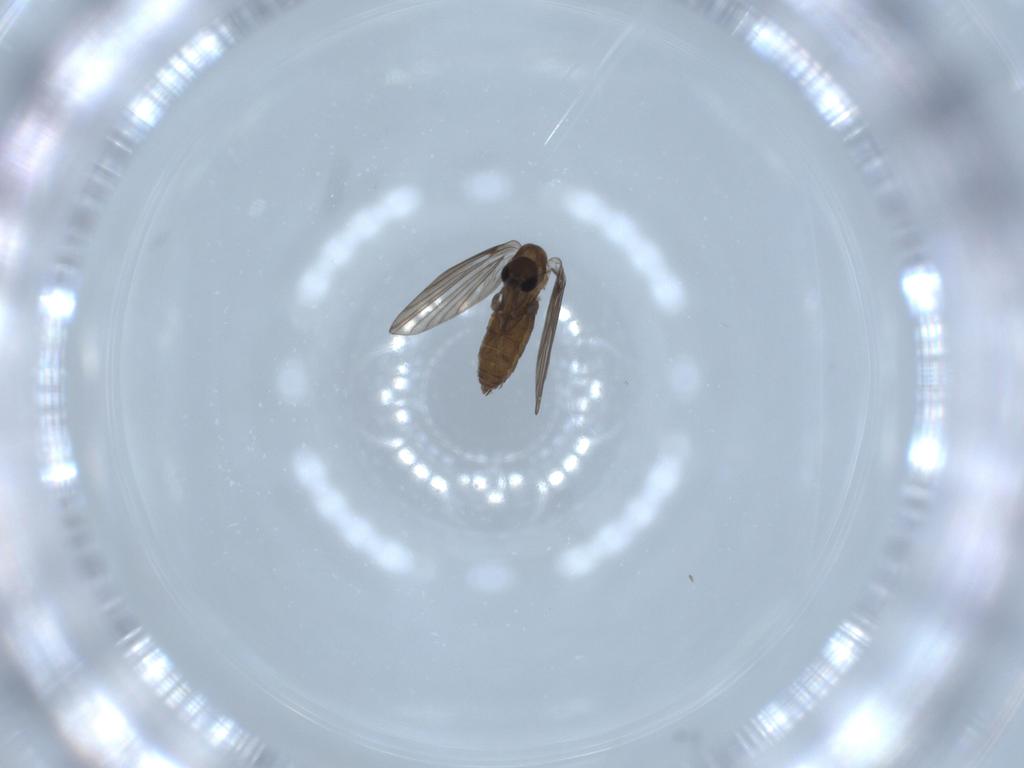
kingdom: Animalia
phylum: Arthropoda
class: Insecta
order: Diptera
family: Psychodidae
